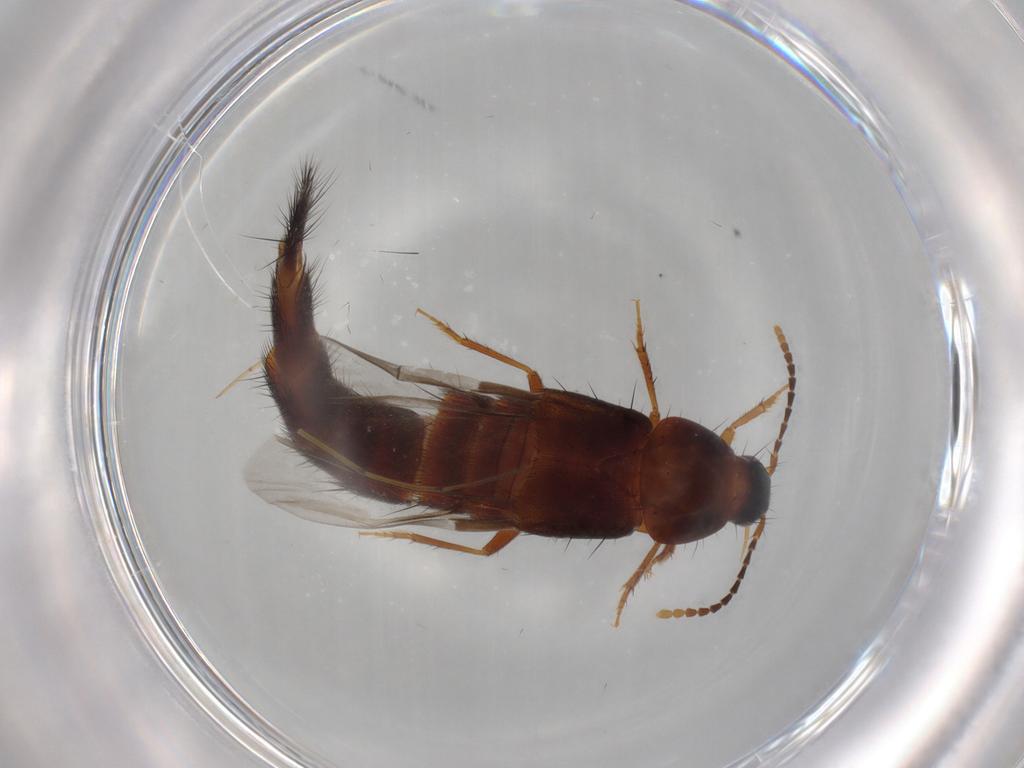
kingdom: Animalia
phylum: Arthropoda
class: Insecta
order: Coleoptera
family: Staphylinidae
